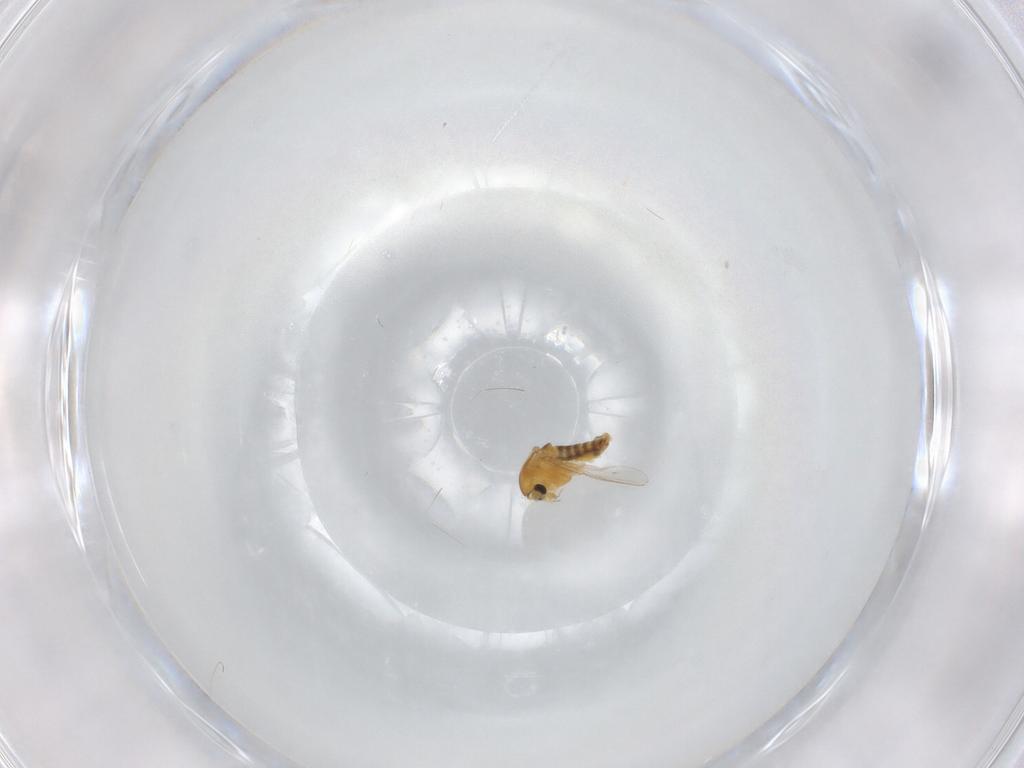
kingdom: Animalia
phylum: Arthropoda
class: Insecta
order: Diptera
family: Chironomidae
